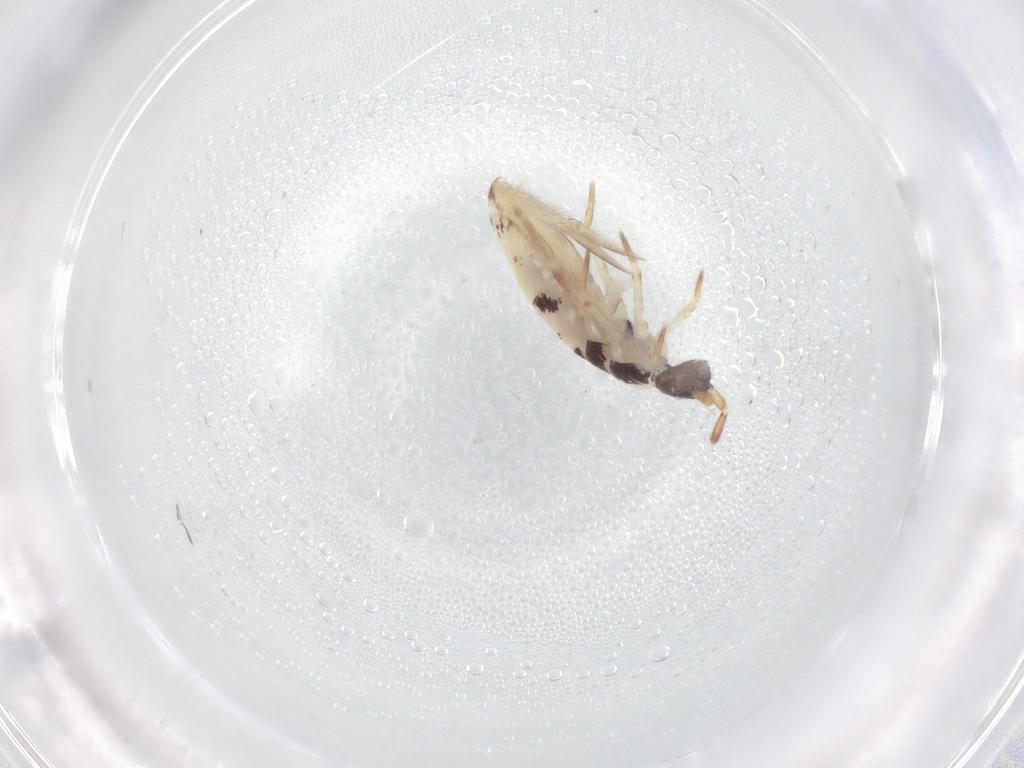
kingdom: Animalia
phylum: Arthropoda
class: Collembola
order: Entomobryomorpha
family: Entomobryidae
